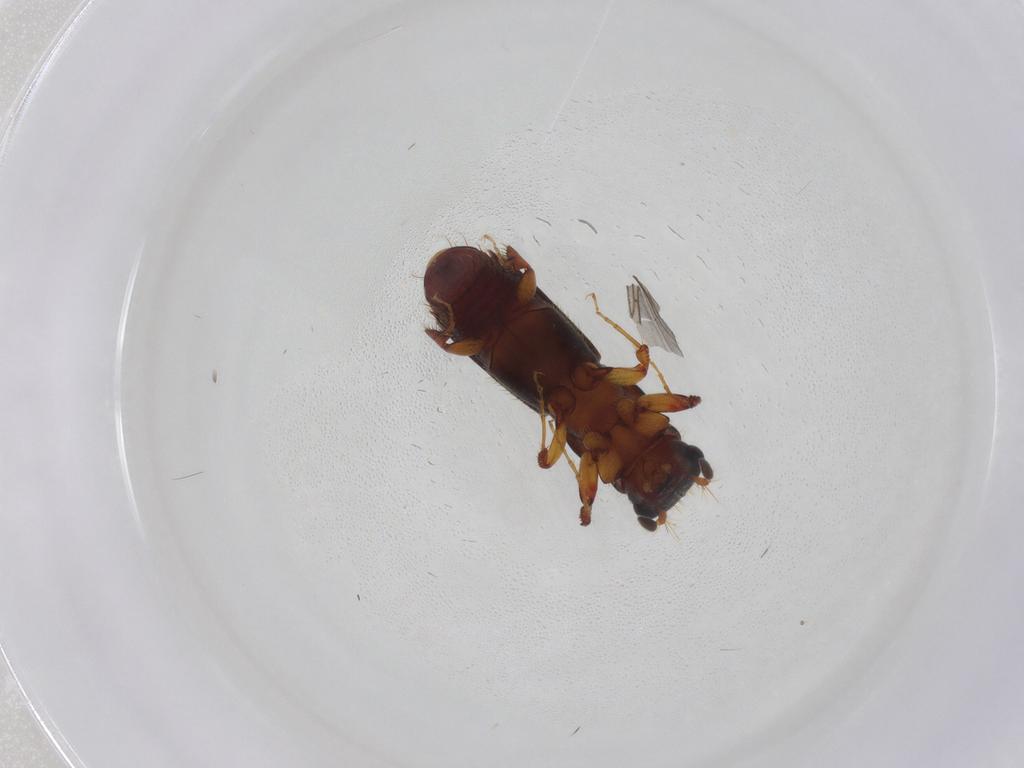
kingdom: Animalia
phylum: Arthropoda
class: Insecta
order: Coleoptera
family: Curculionidae
